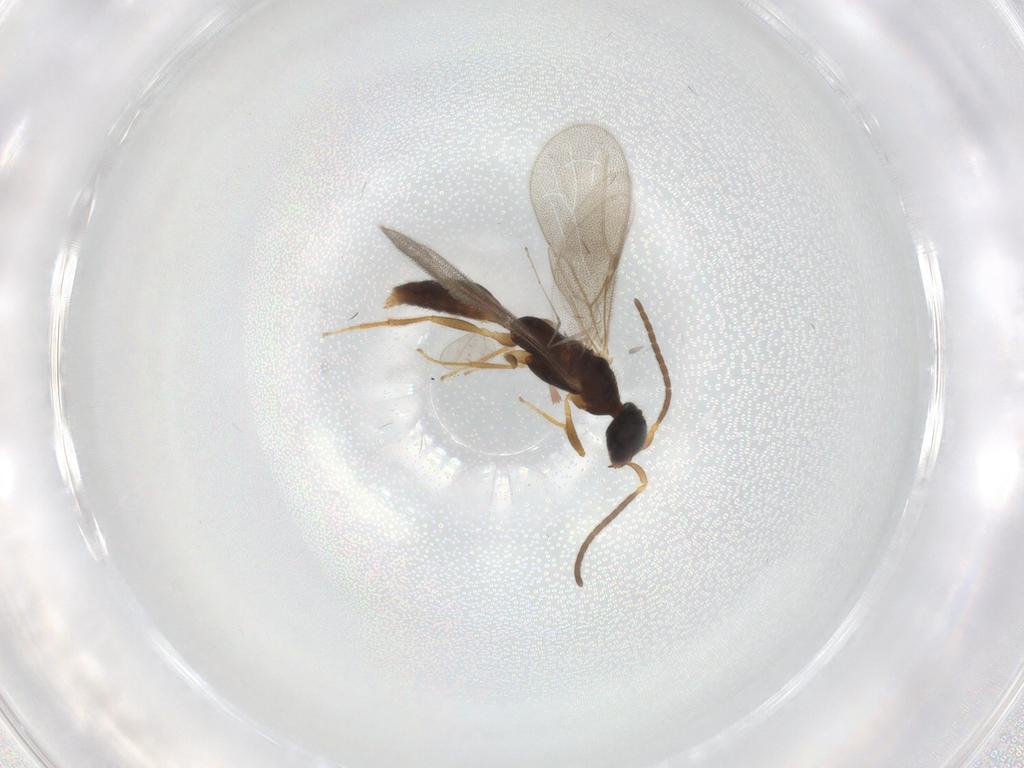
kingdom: Animalia
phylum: Arthropoda
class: Insecta
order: Hymenoptera
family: Bethylidae
